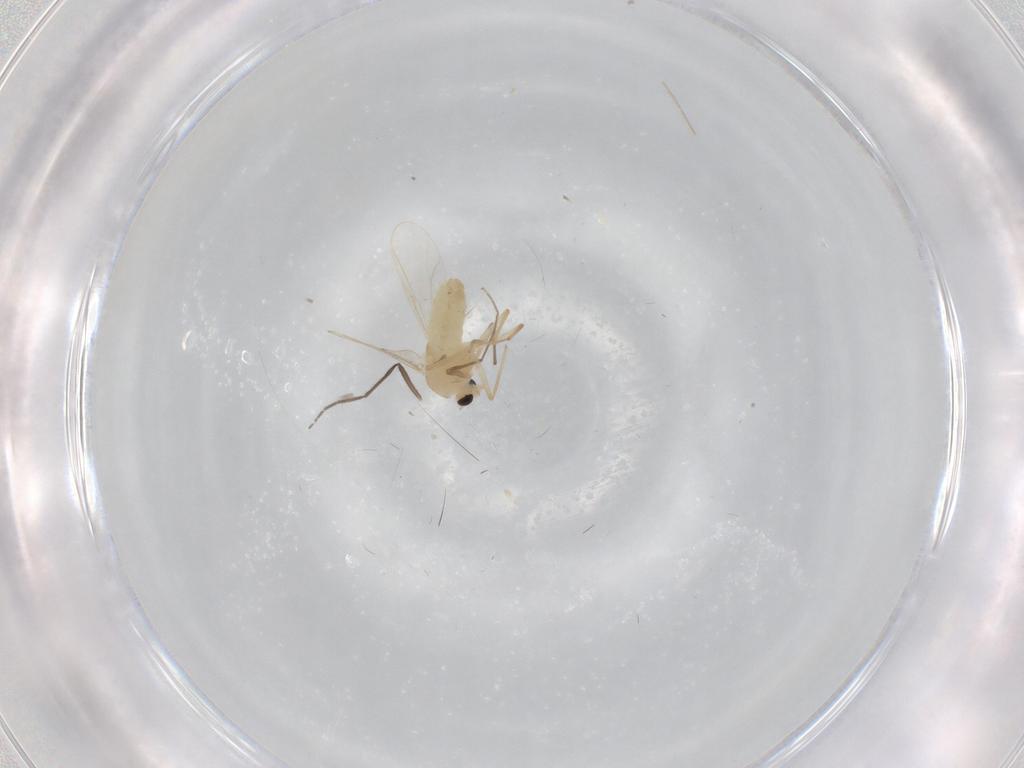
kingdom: Animalia
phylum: Arthropoda
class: Insecta
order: Diptera
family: Chironomidae
